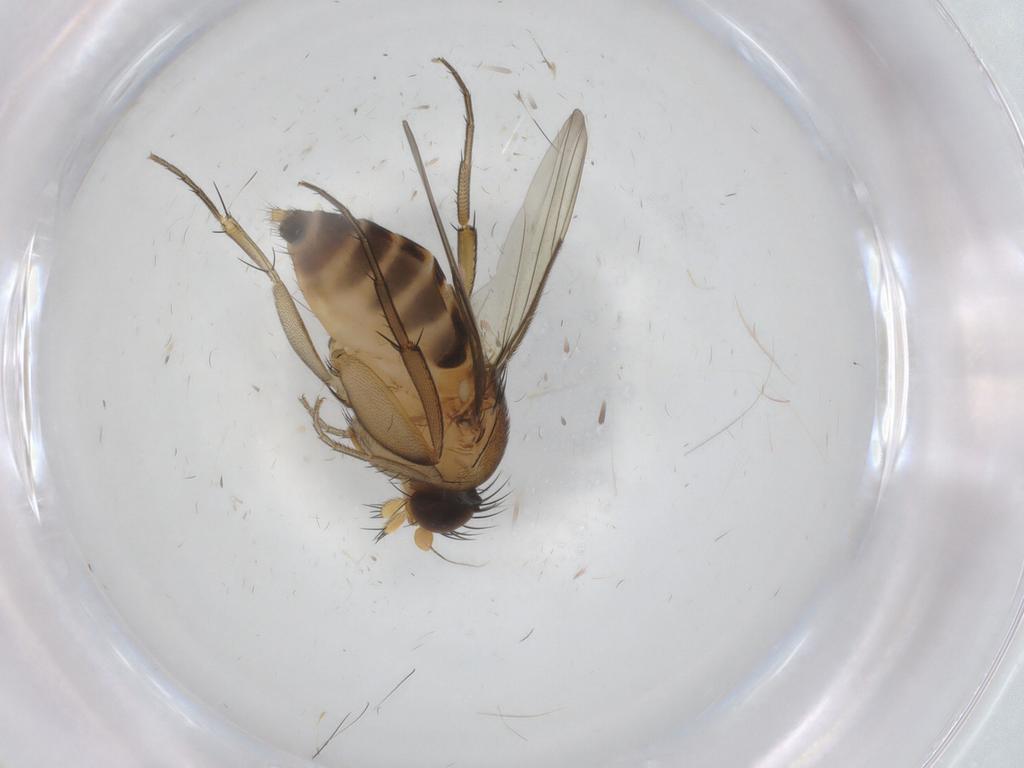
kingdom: Animalia
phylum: Arthropoda
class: Insecta
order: Diptera
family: Phoridae
